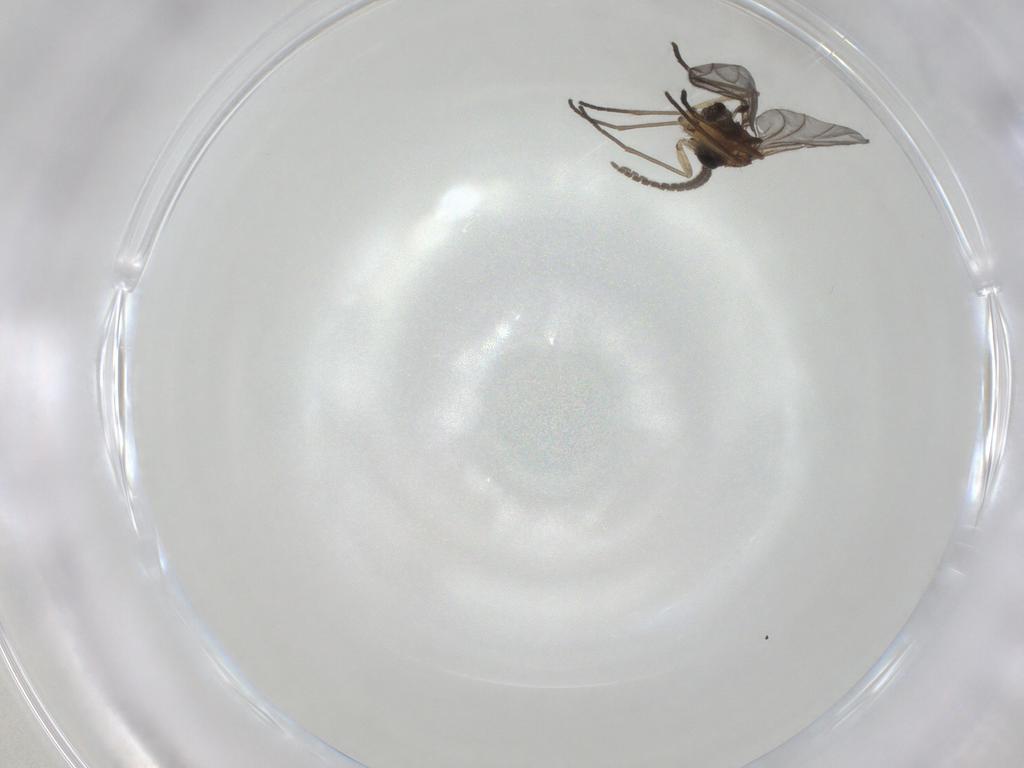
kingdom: Animalia
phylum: Arthropoda
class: Insecta
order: Diptera
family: Sciaridae
